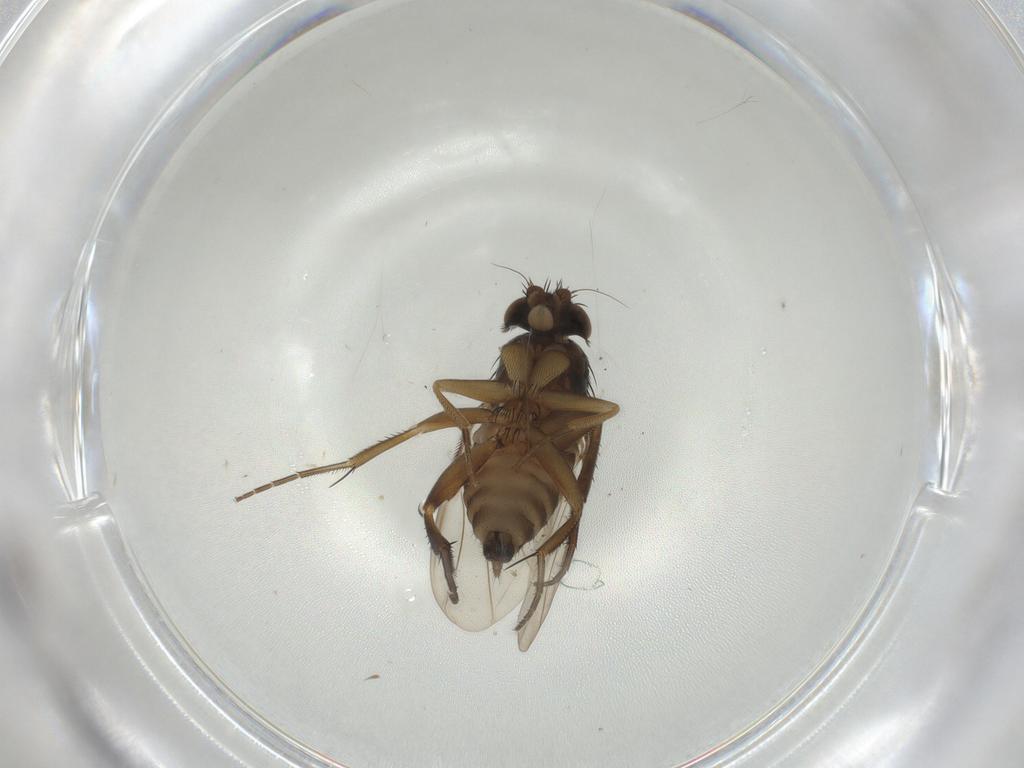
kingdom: Animalia
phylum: Arthropoda
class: Insecta
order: Diptera
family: Phoridae
